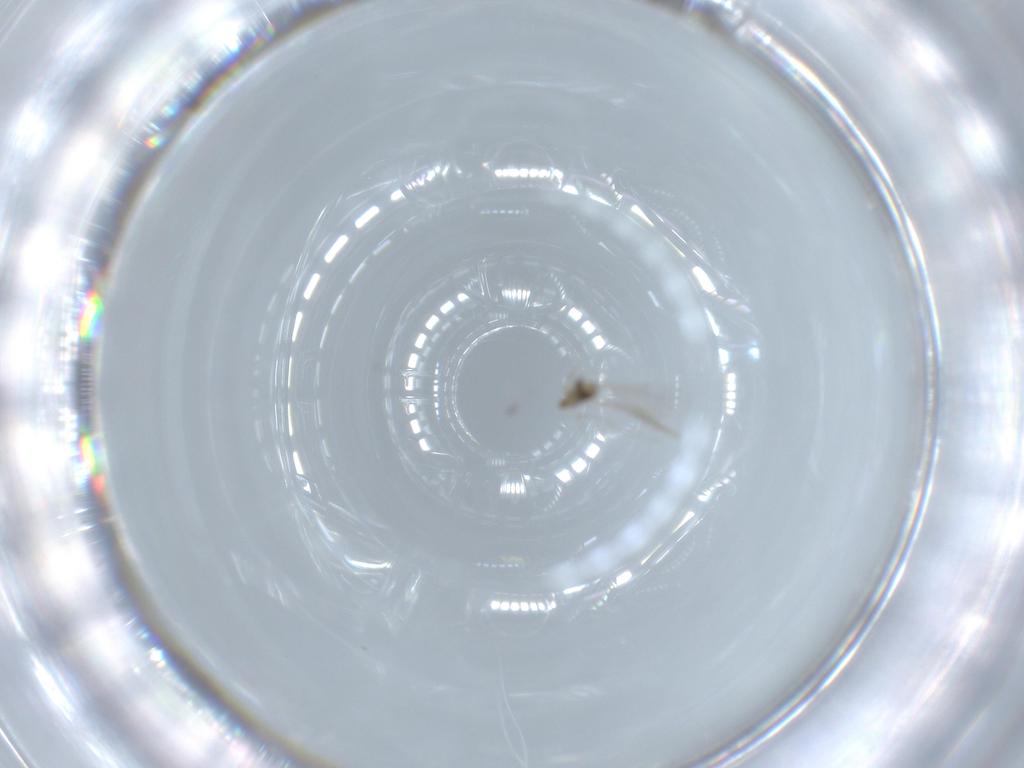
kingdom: Animalia
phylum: Arthropoda
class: Insecta
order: Diptera
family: Cecidomyiidae
